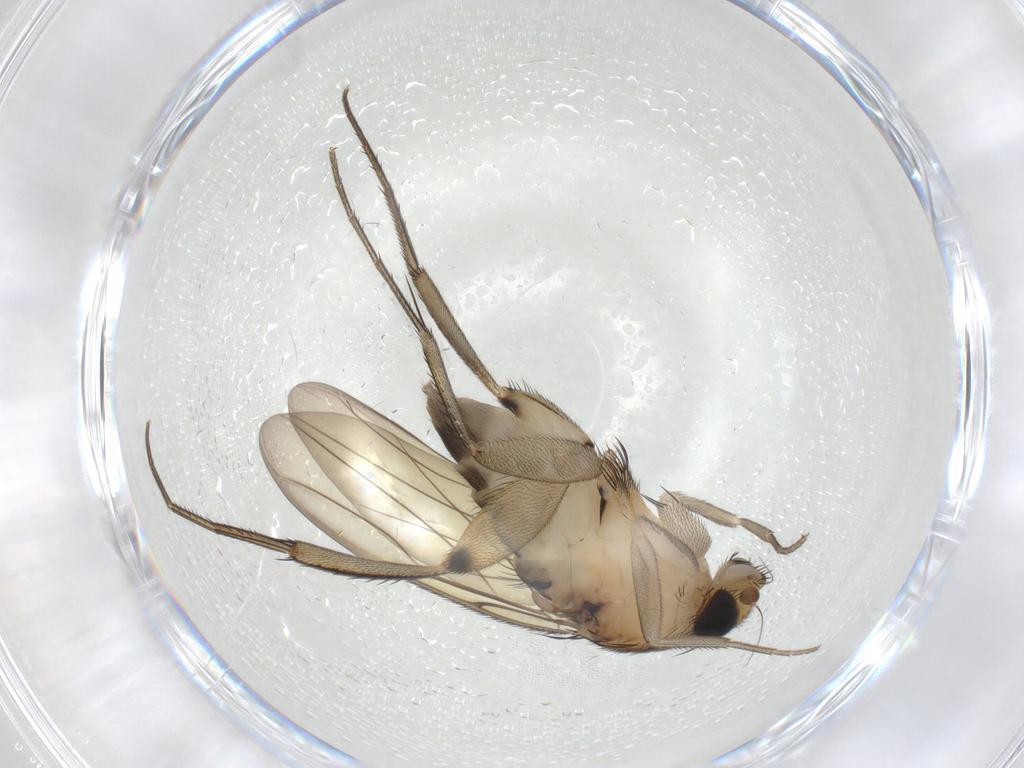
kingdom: Animalia
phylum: Arthropoda
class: Insecta
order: Diptera
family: Phoridae
